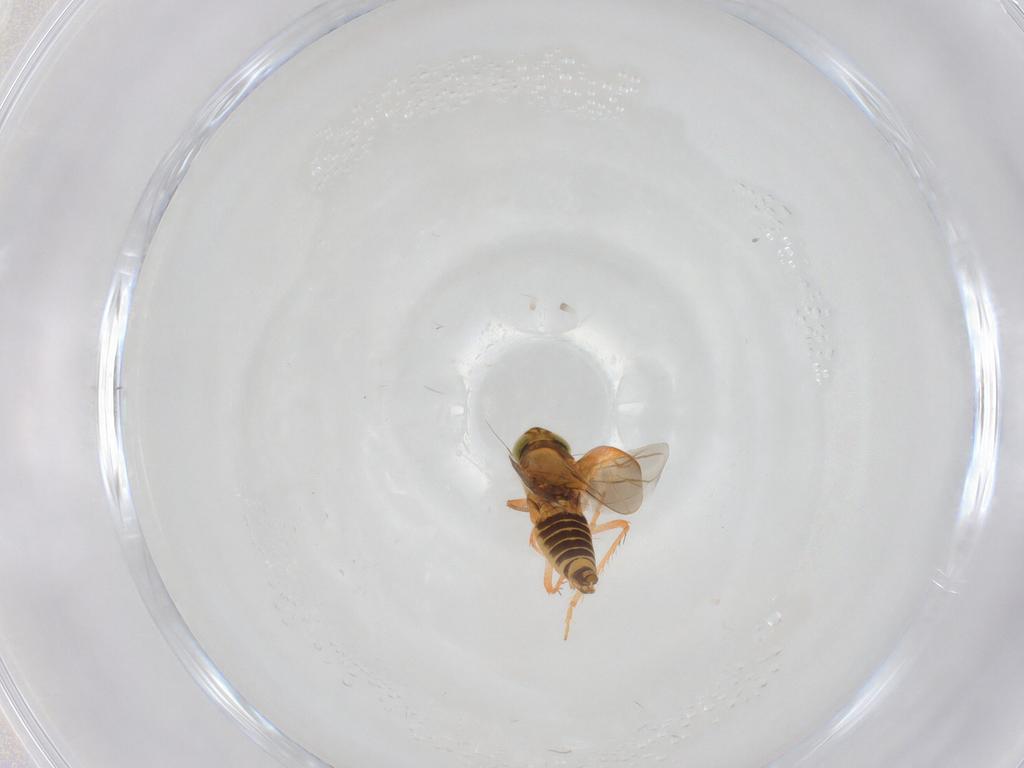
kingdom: Animalia
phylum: Arthropoda
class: Insecta
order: Hemiptera
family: Cicadellidae
